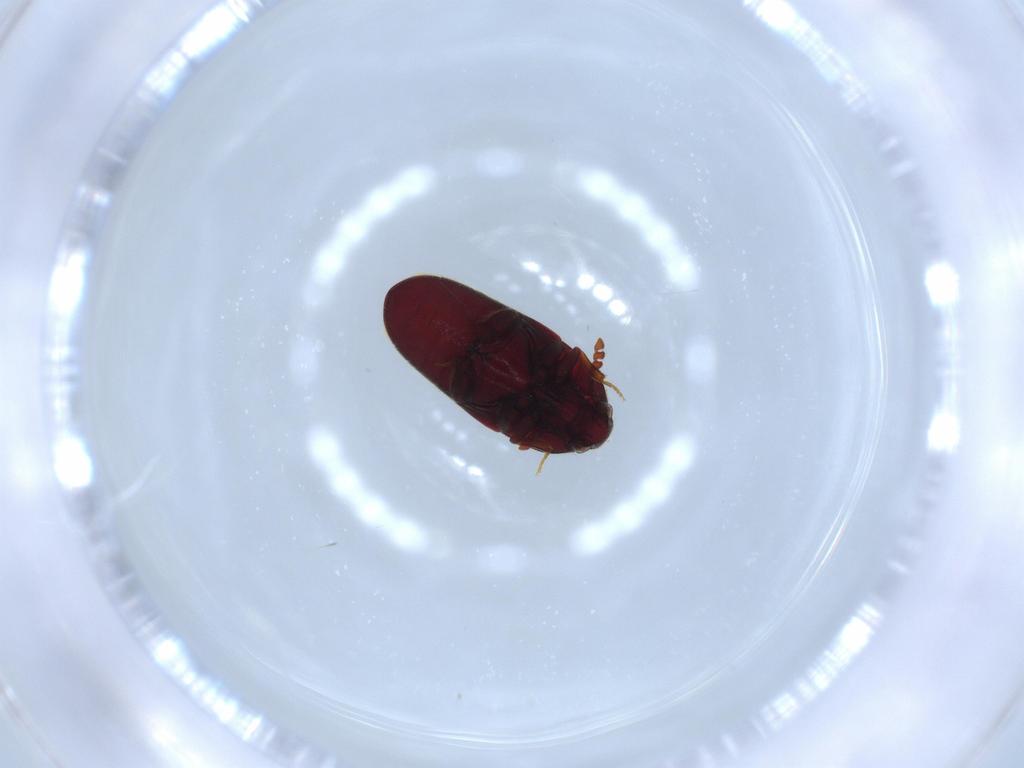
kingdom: Animalia
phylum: Arthropoda
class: Insecta
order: Coleoptera
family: Throscidae
